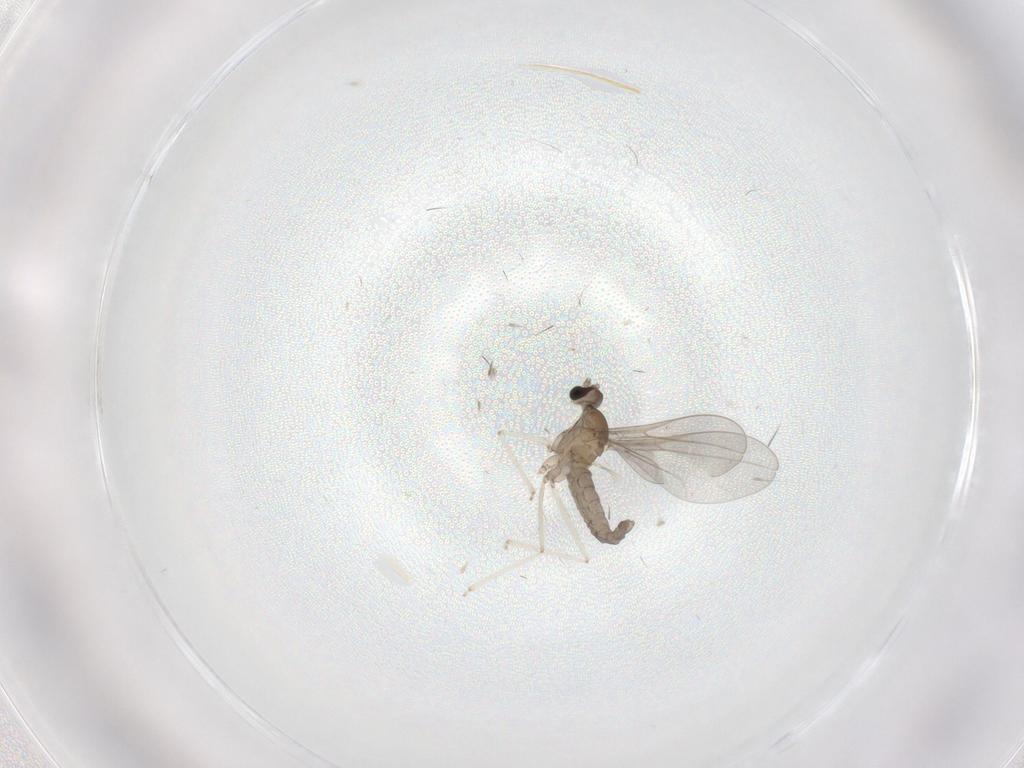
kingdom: Animalia
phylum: Arthropoda
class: Insecta
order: Diptera
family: Cecidomyiidae
